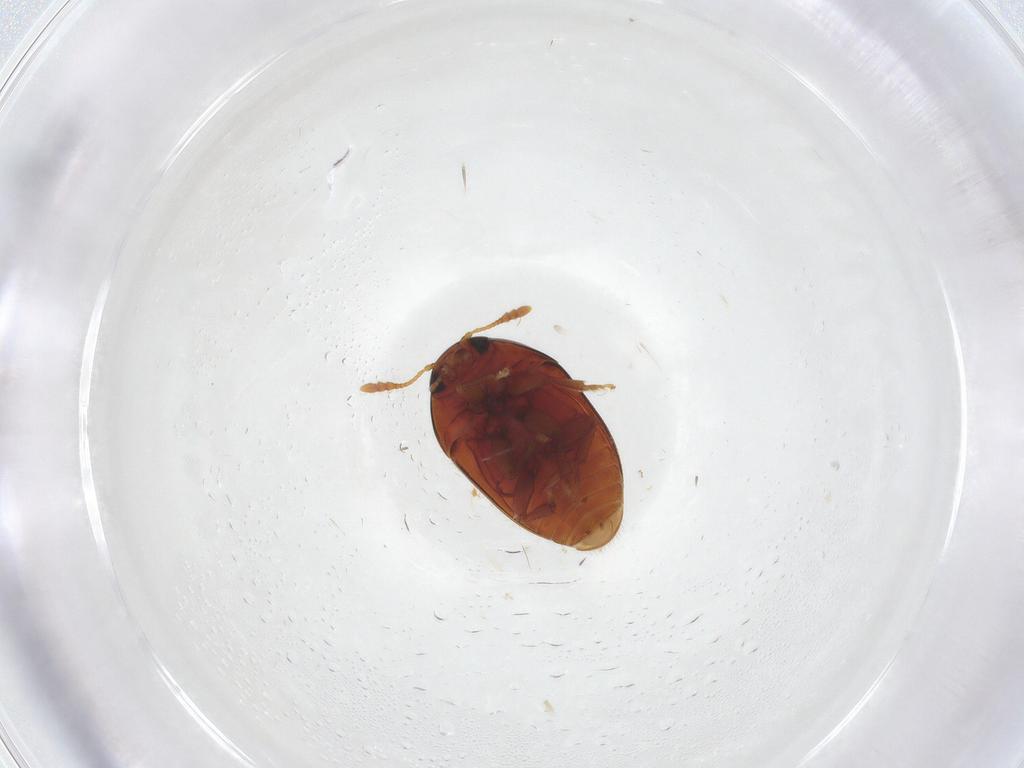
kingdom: Animalia
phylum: Arthropoda
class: Insecta
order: Coleoptera
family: Phalacridae
